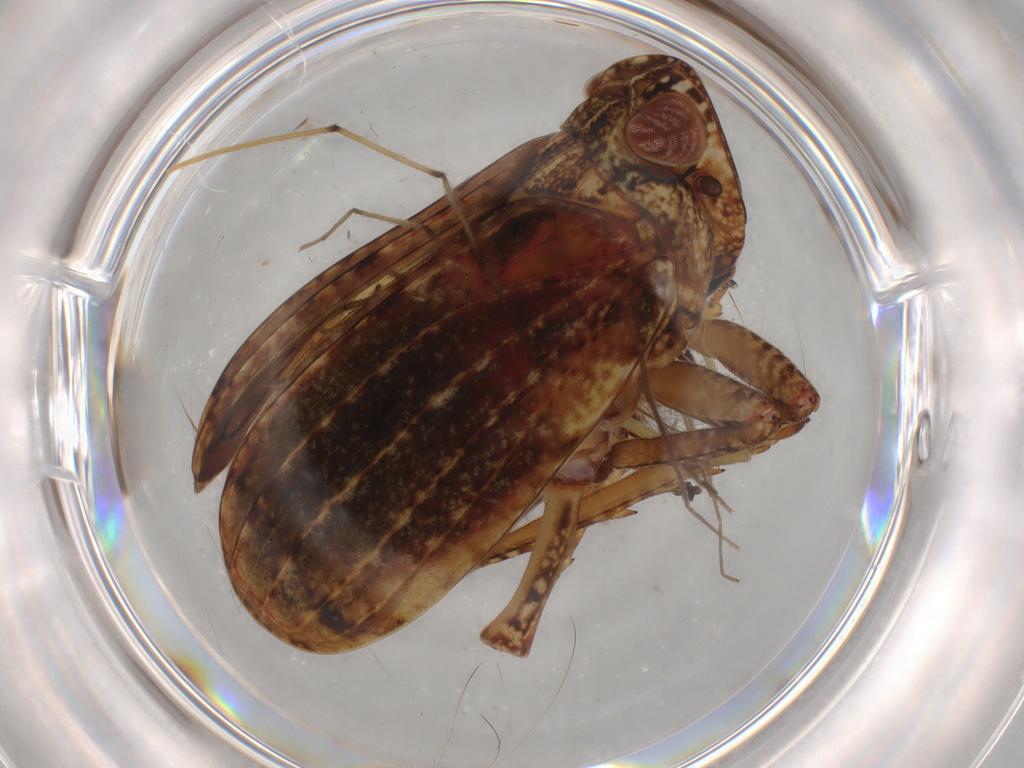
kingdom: Animalia
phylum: Arthropoda
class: Insecta
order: Hemiptera
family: Tropiduchidae
